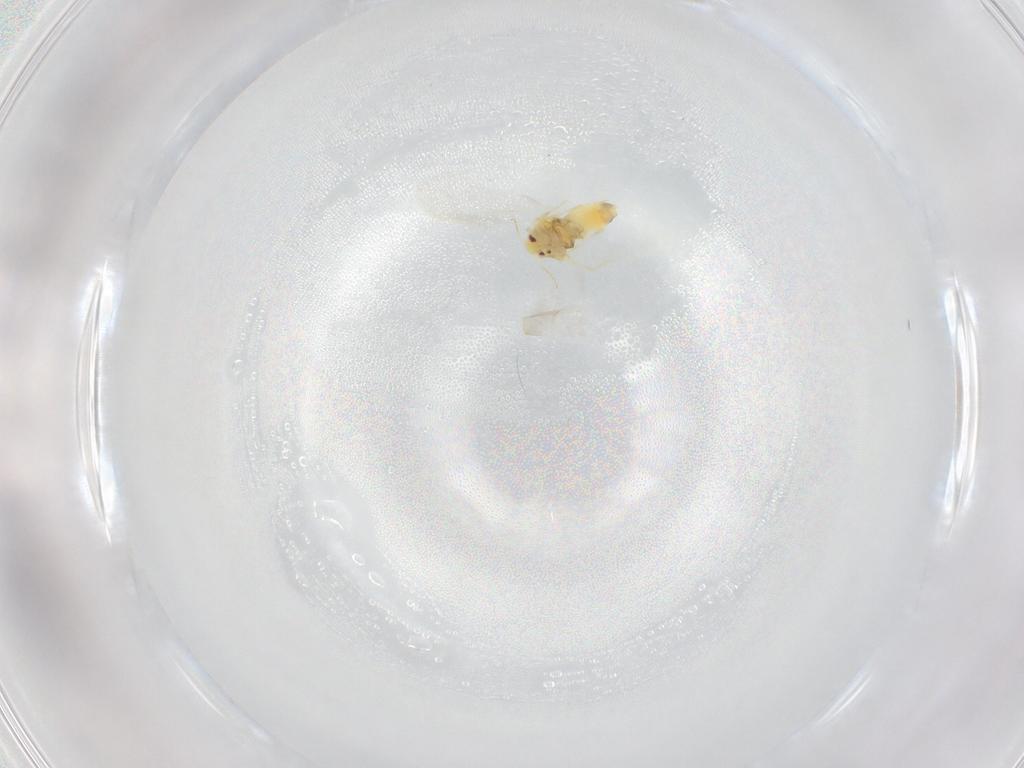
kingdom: Animalia
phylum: Arthropoda
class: Insecta
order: Hemiptera
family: Aleyrodidae
